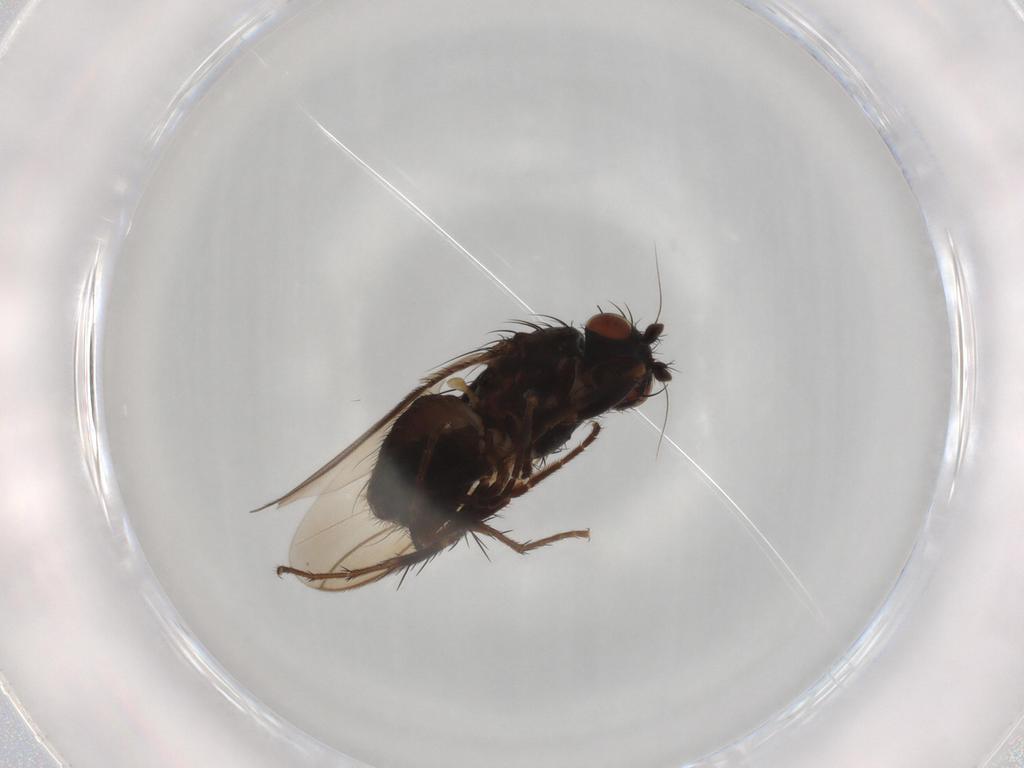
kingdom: Animalia
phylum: Arthropoda
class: Insecta
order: Diptera
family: Sphaeroceridae
